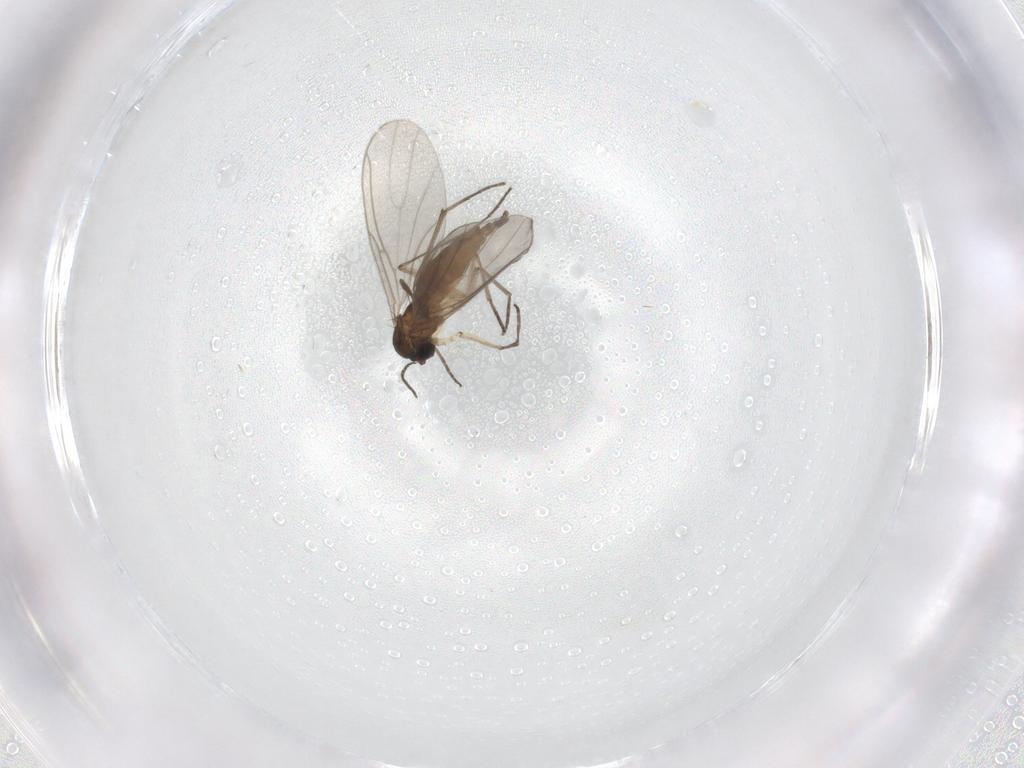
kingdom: Animalia
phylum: Arthropoda
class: Insecta
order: Diptera
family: Sciaridae
